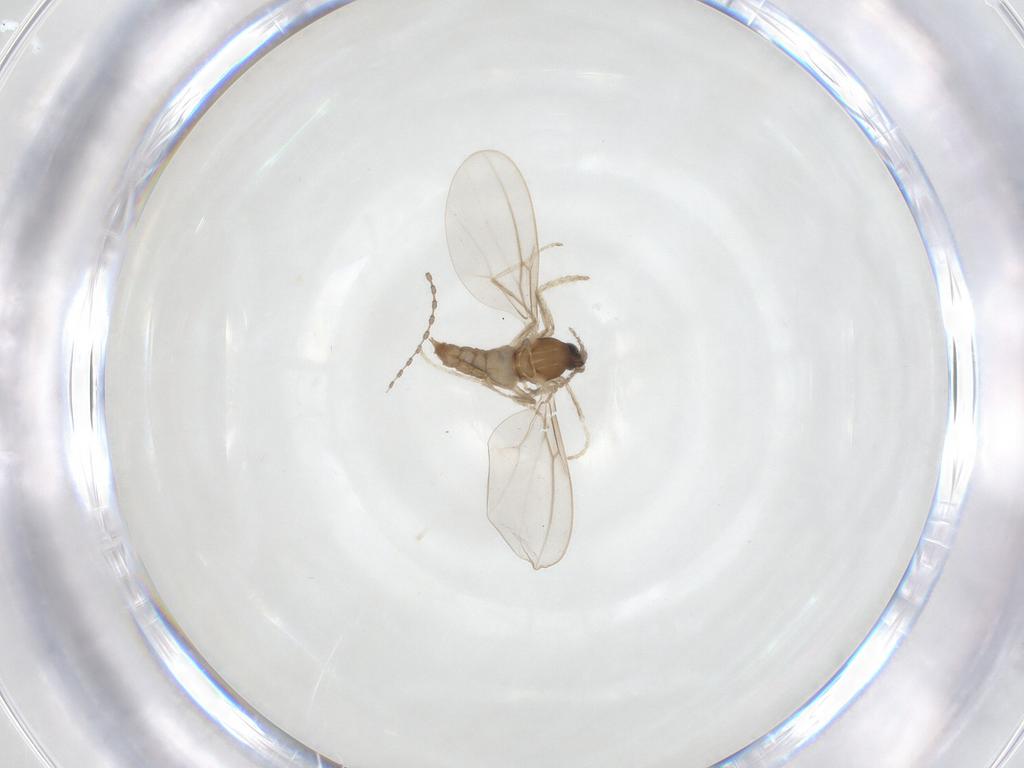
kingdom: Animalia
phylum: Arthropoda
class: Insecta
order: Diptera
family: Cecidomyiidae
